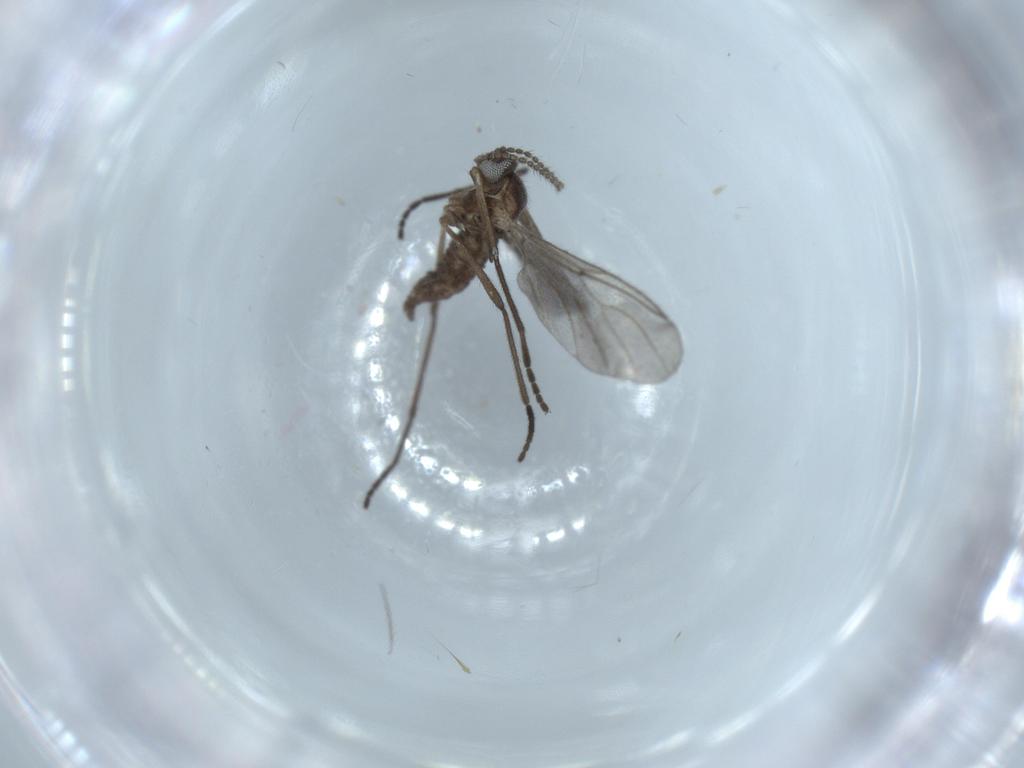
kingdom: Animalia
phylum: Arthropoda
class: Insecta
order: Diptera
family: Cecidomyiidae
